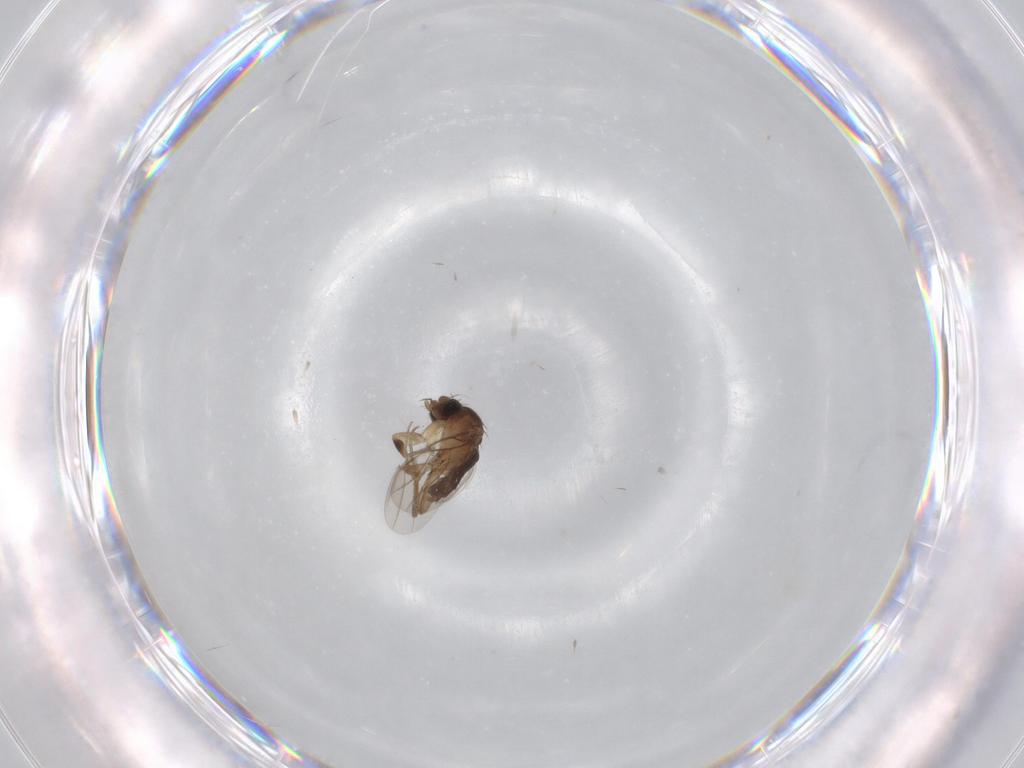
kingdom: Animalia
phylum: Arthropoda
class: Insecta
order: Diptera
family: Phoridae
